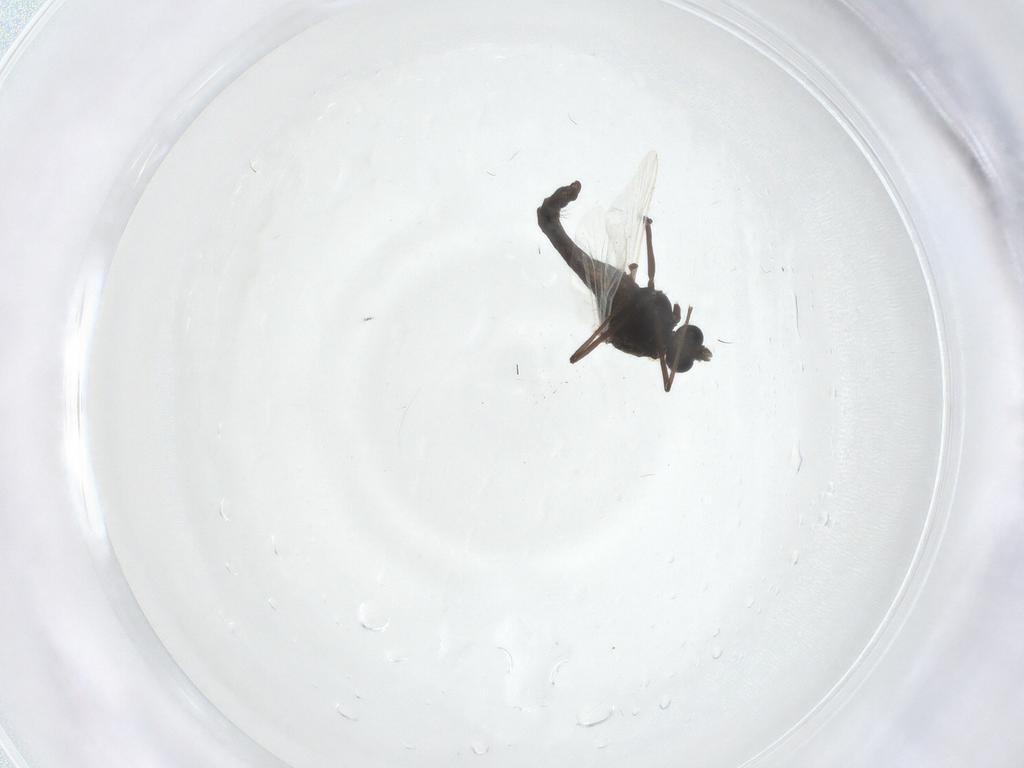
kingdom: Animalia
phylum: Arthropoda
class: Insecta
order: Diptera
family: Chironomidae
